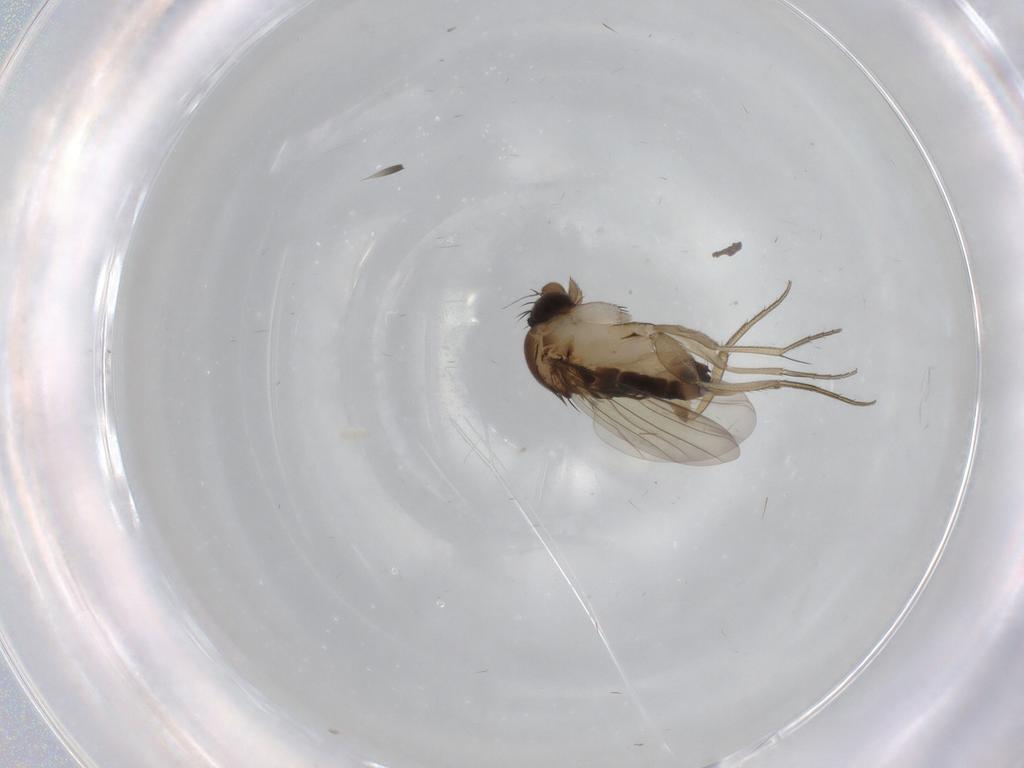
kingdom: Animalia
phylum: Arthropoda
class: Insecta
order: Diptera
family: Phoridae
